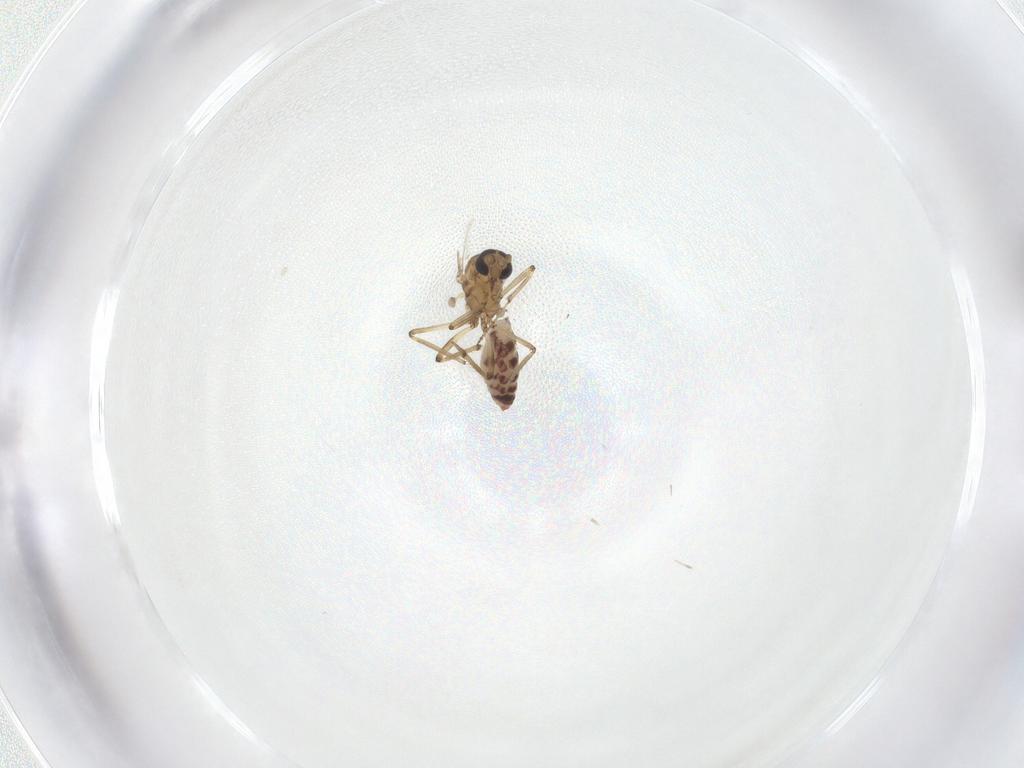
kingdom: Animalia
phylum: Arthropoda
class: Insecta
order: Diptera
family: Ceratopogonidae
